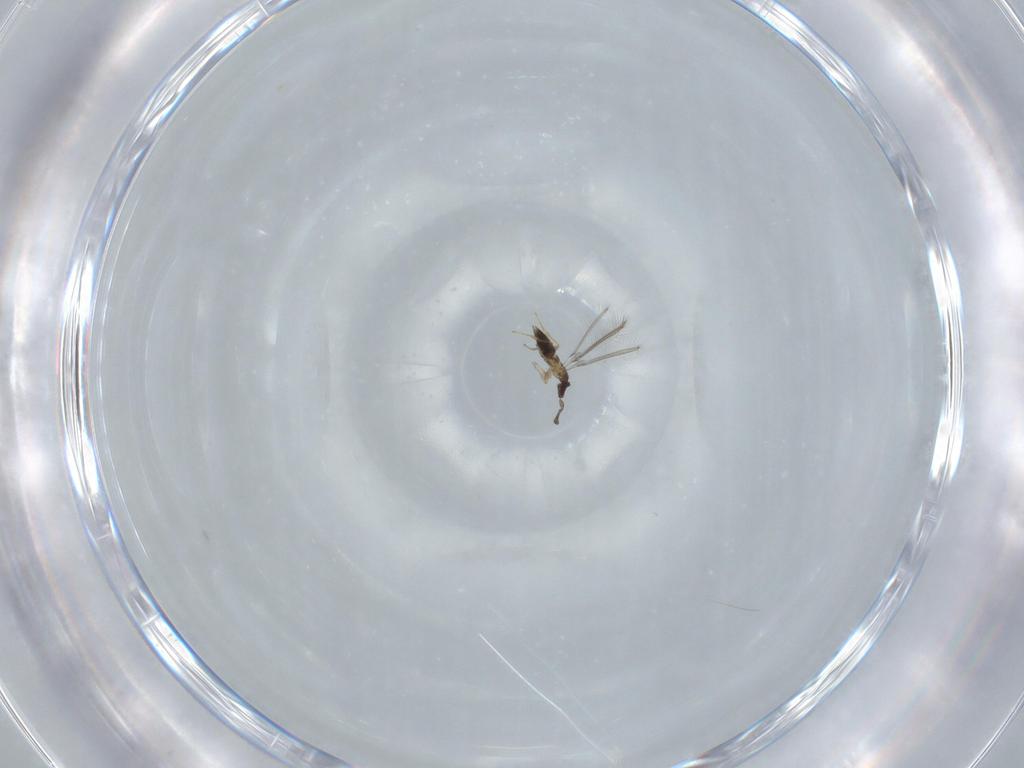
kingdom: Animalia
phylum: Arthropoda
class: Insecta
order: Hymenoptera
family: Mymaridae
